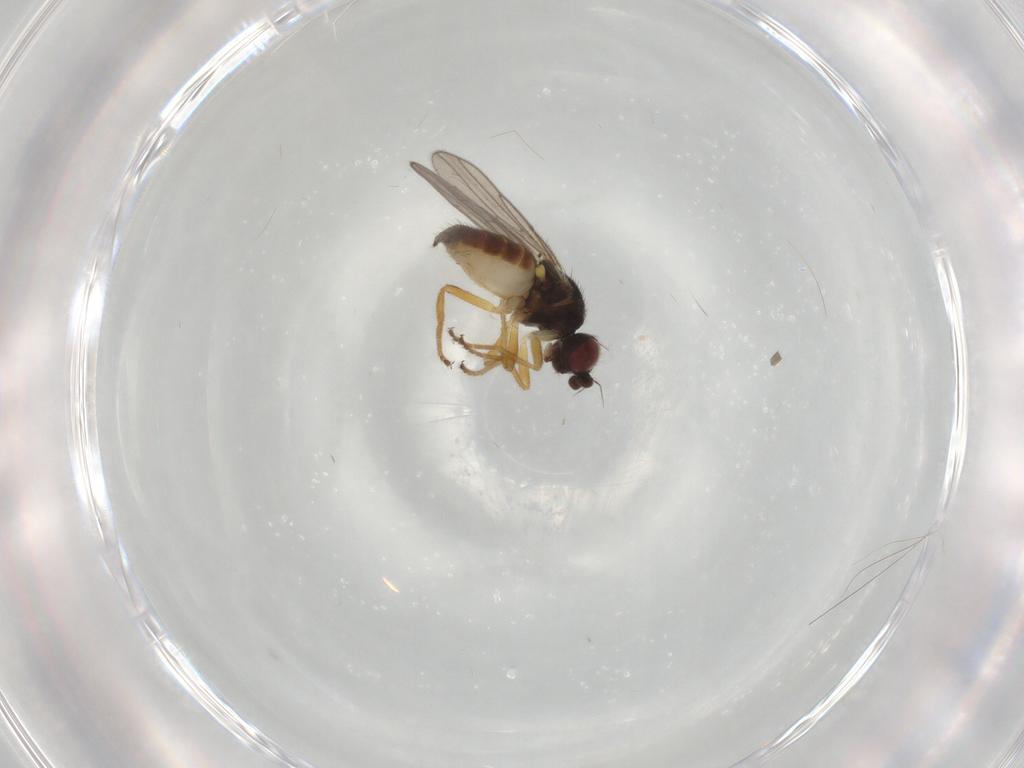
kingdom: Animalia
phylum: Arthropoda
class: Insecta
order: Diptera
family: Chloropidae
